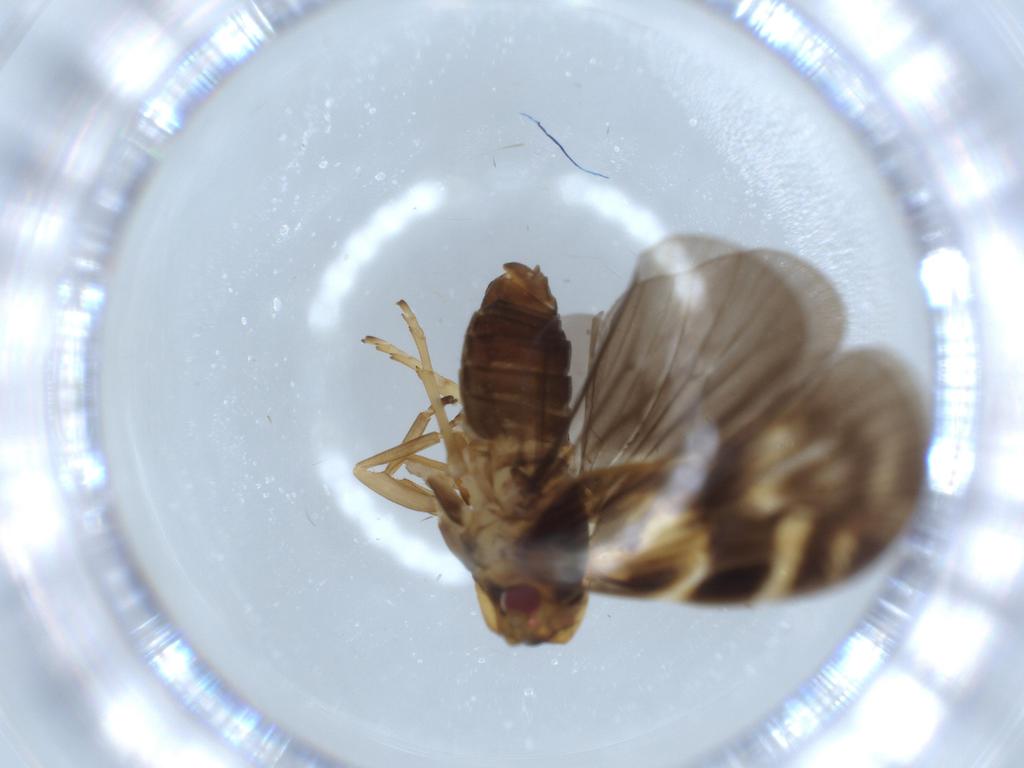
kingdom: Animalia
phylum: Arthropoda
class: Insecta
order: Hemiptera
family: Cixiidae
